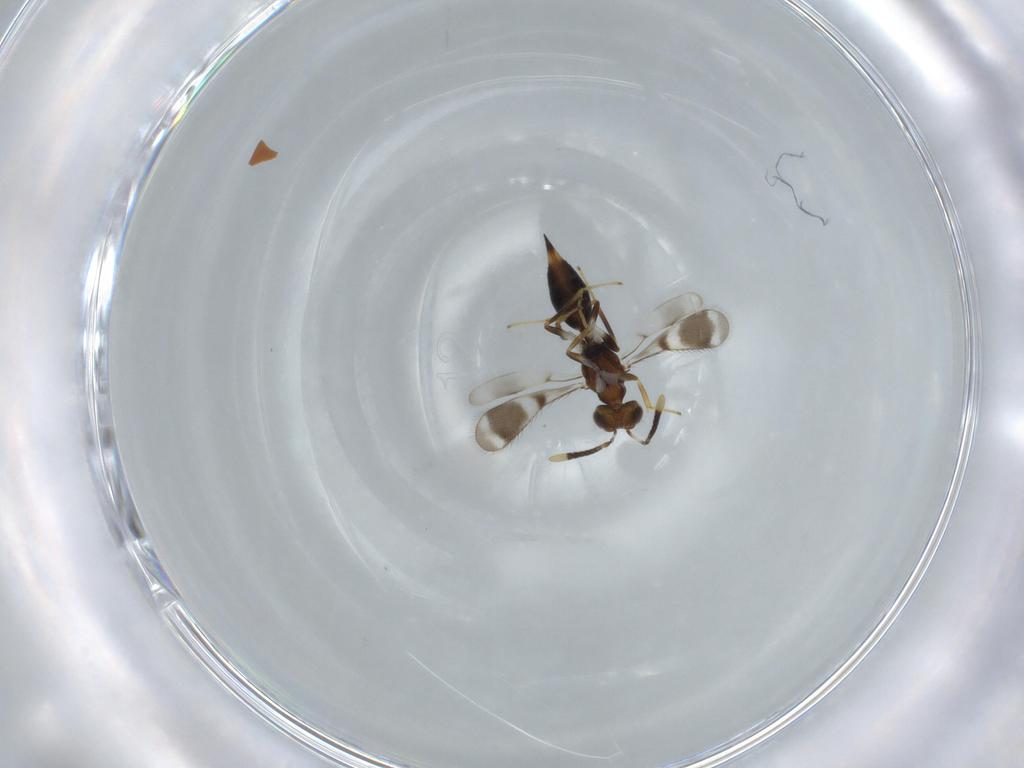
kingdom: Animalia
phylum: Arthropoda
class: Insecta
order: Hymenoptera
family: Diparidae
